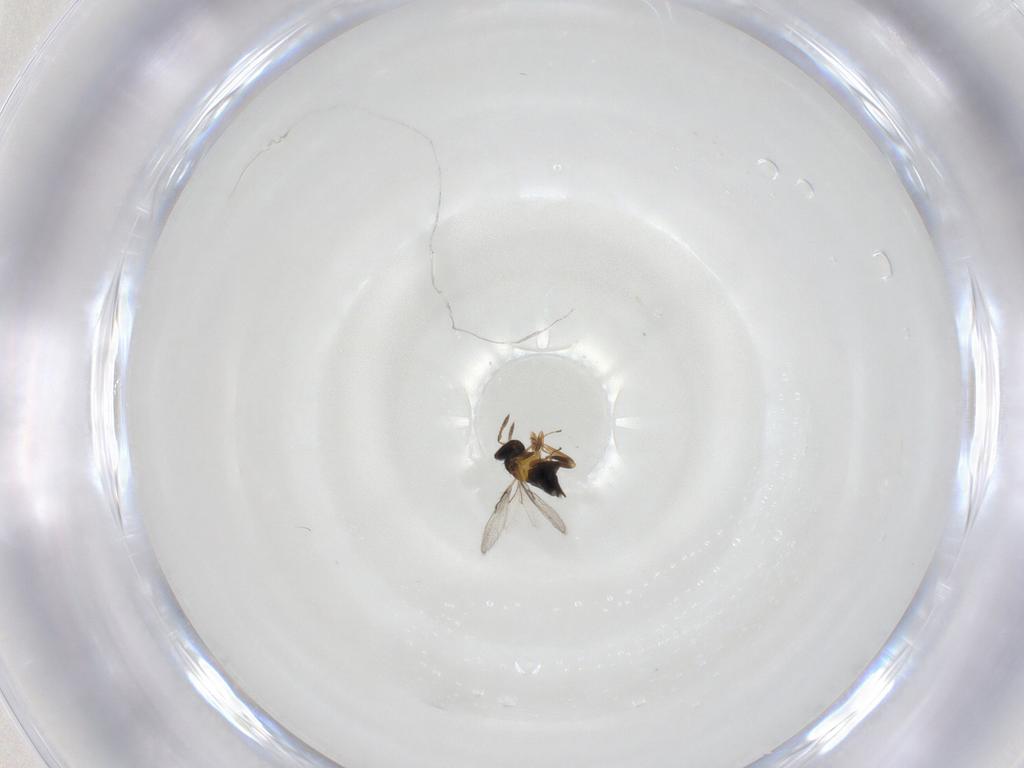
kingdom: Animalia
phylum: Arthropoda
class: Insecta
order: Hymenoptera
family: Trichogrammatidae
